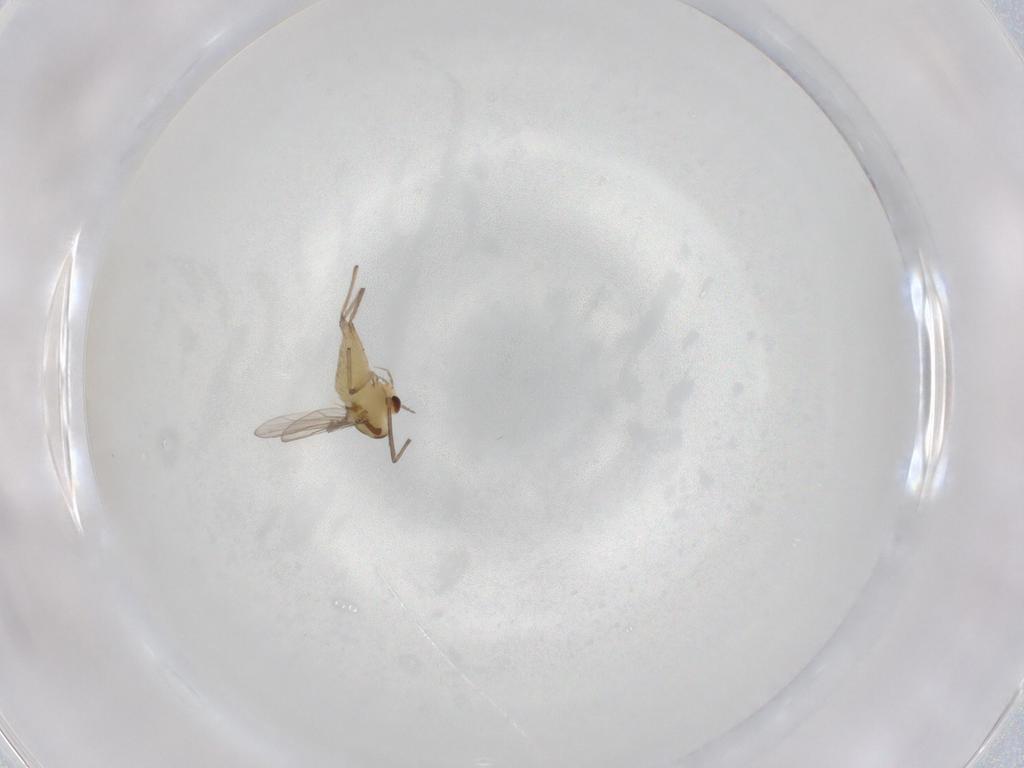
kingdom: Animalia
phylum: Arthropoda
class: Insecta
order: Diptera
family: Chironomidae
